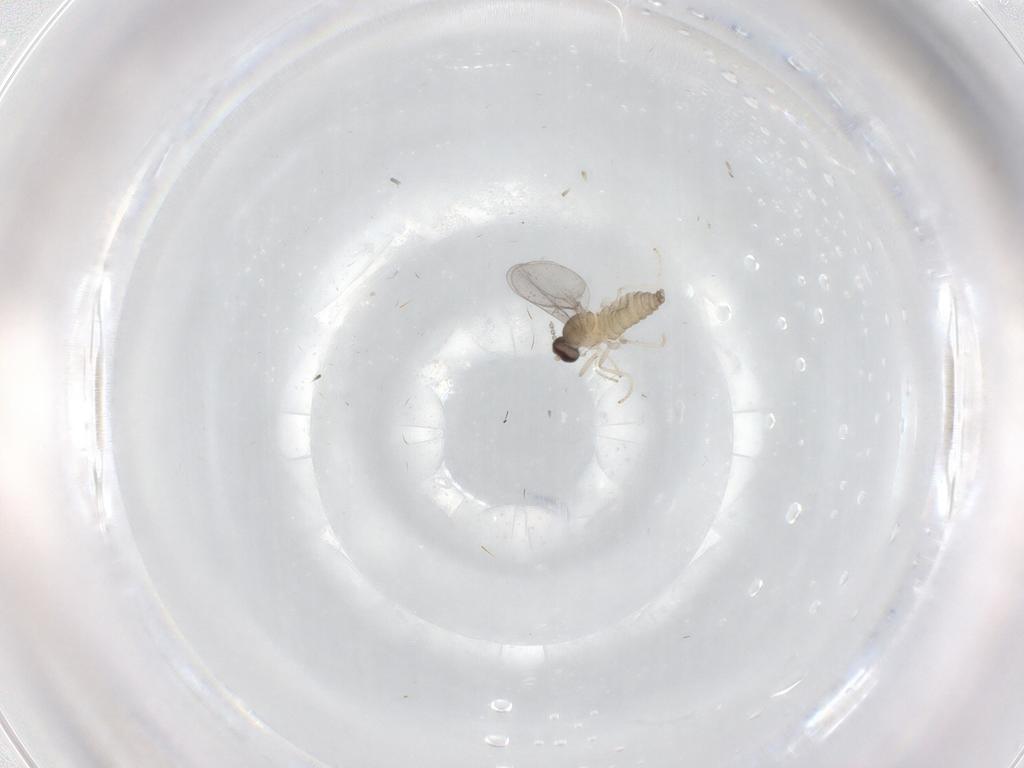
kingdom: Animalia
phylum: Arthropoda
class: Insecta
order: Diptera
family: Cecidomyiidae
